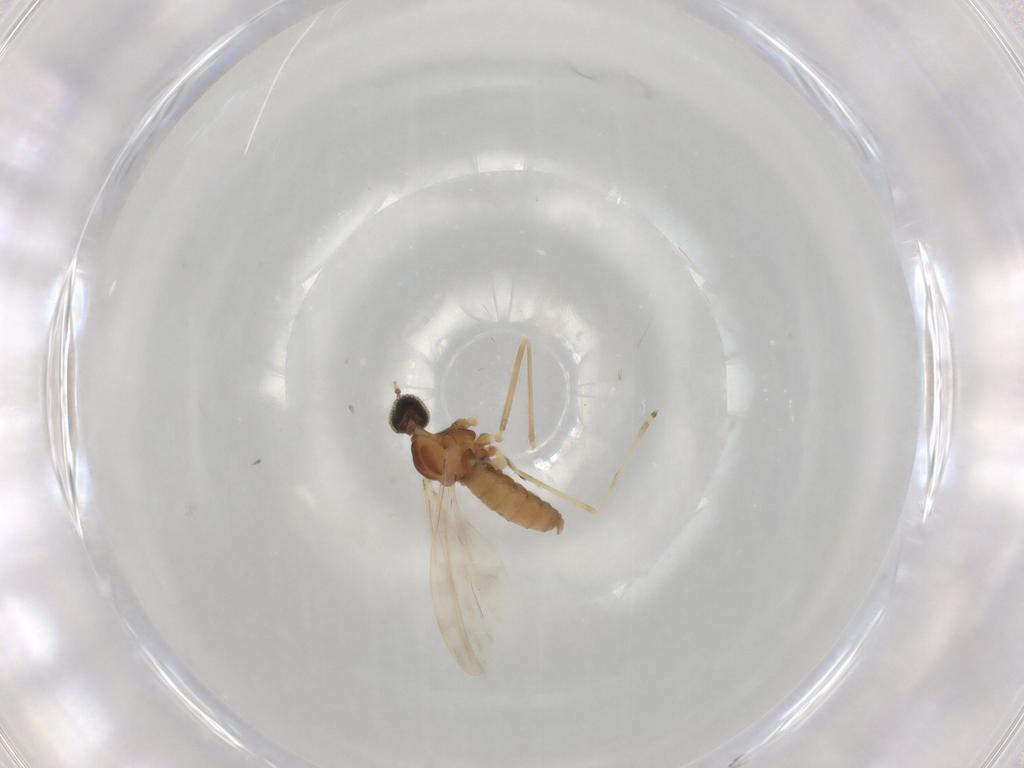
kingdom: Animalia
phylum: Arthropoda
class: Insecta
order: Diptera
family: Cecidomyiidae
